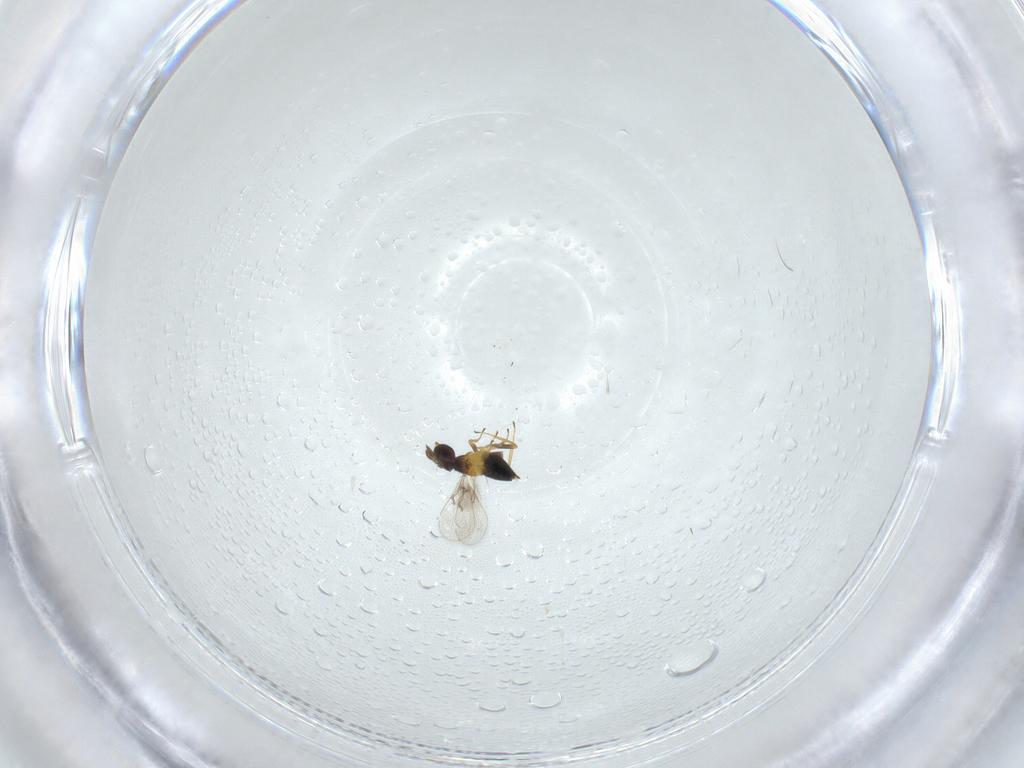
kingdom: Animalia
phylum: Arthropoda
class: Insecta
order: Diptera
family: Sciaridae
